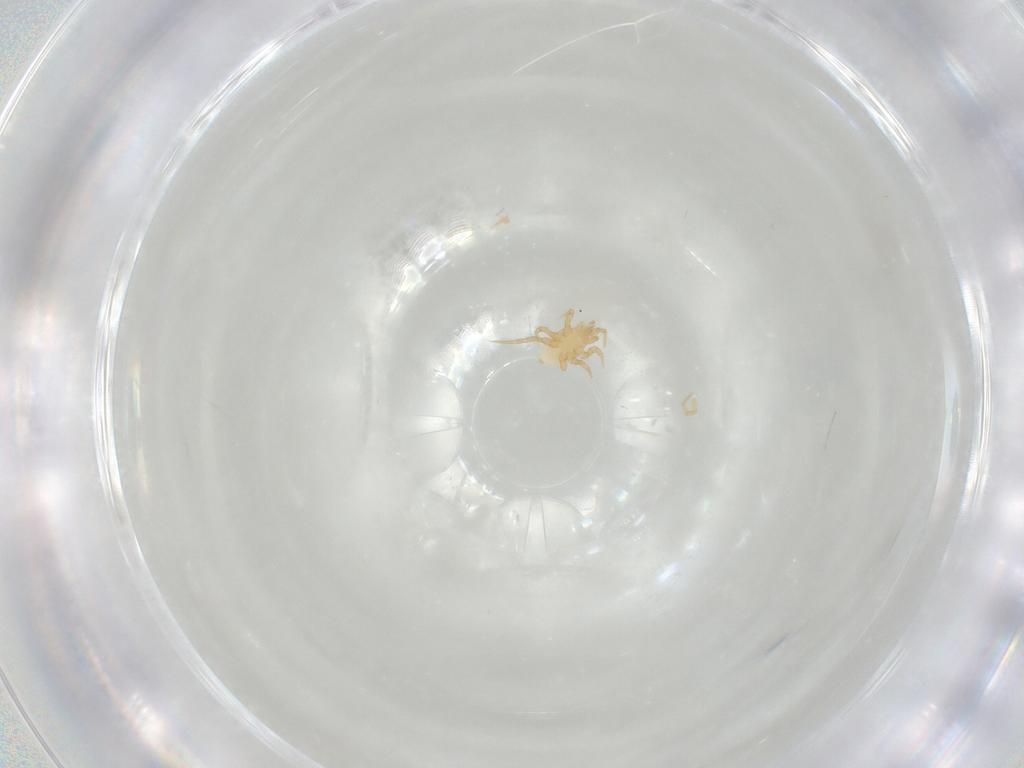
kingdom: Animalia
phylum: Arthropoda
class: Arachnida
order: Mesostigmata
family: Parasitidae
